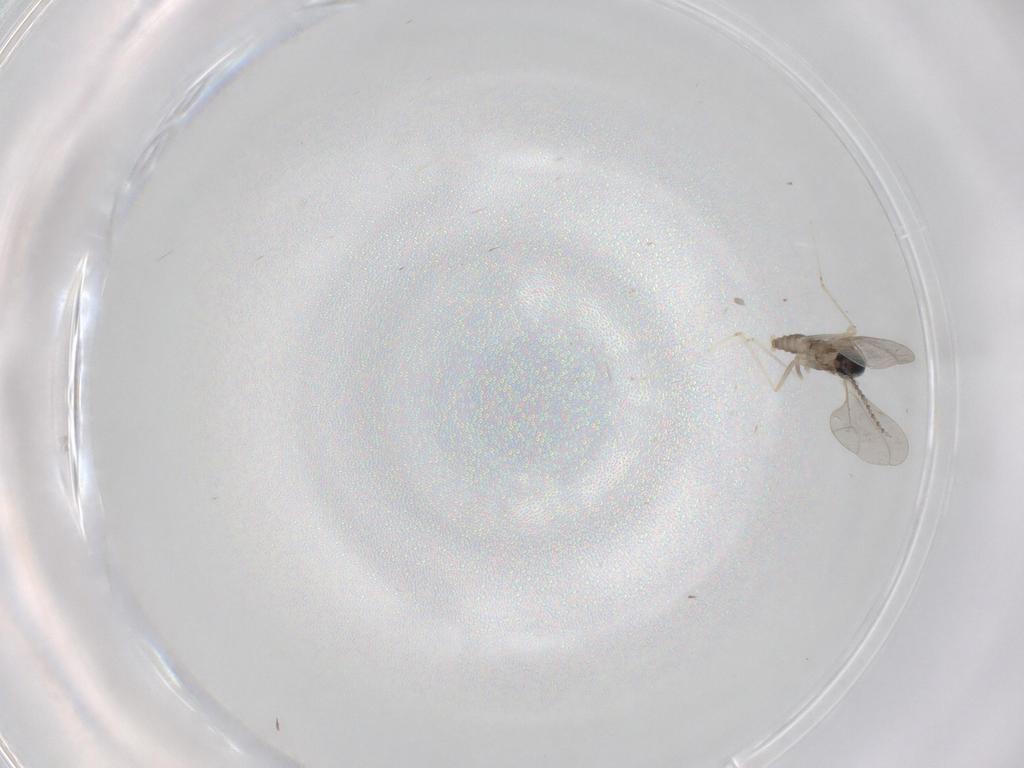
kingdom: Animalia
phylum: Arthropoda
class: Insecta
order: Diptera
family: Cecidomyiidae
